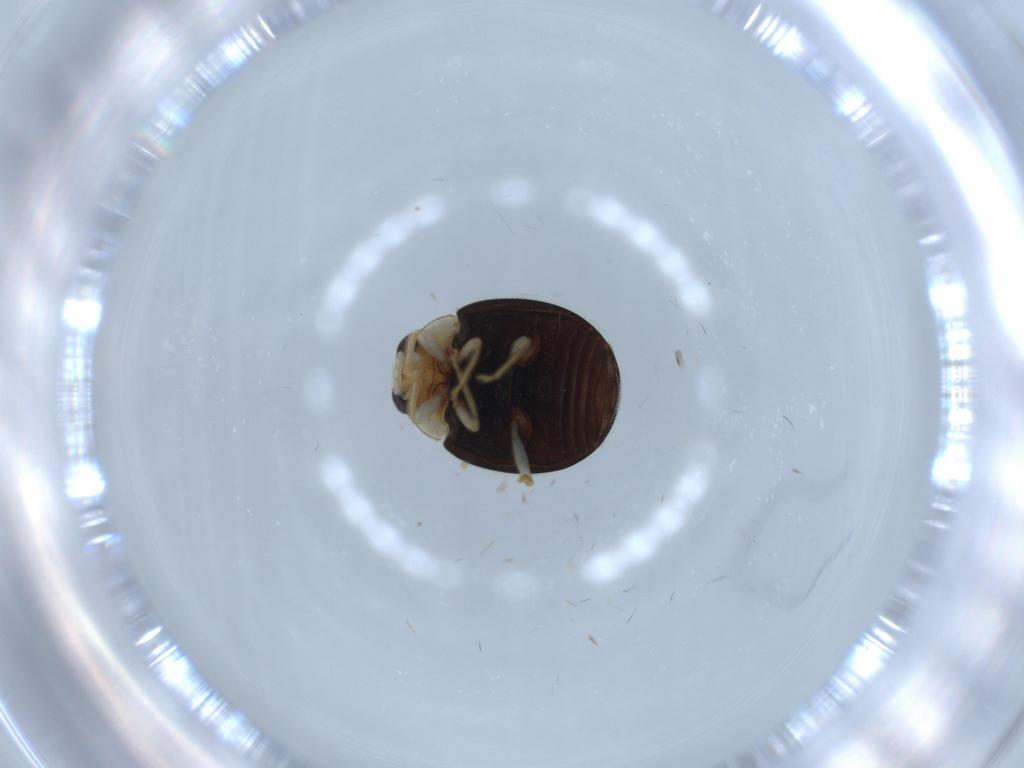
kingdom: Animalia
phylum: Arthropoda
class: Insecta
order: Coleoptera
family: Coccinellidae
